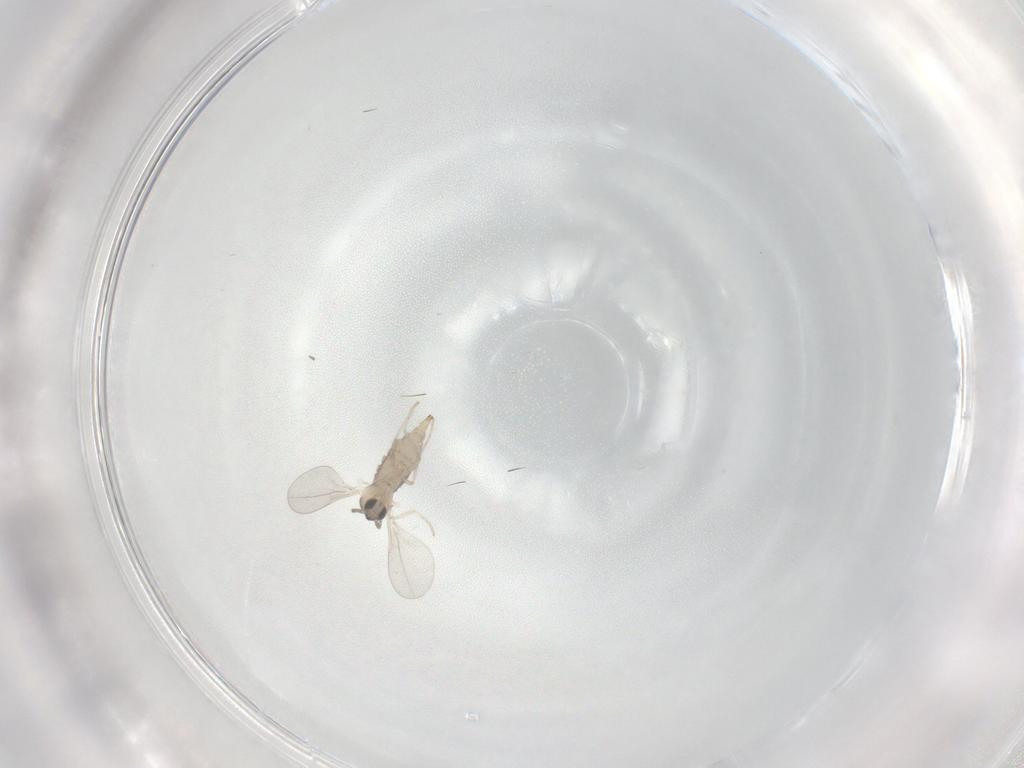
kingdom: Animalia
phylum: Arthropoda
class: Insecta
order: Diptera
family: Cecidomyiidae
